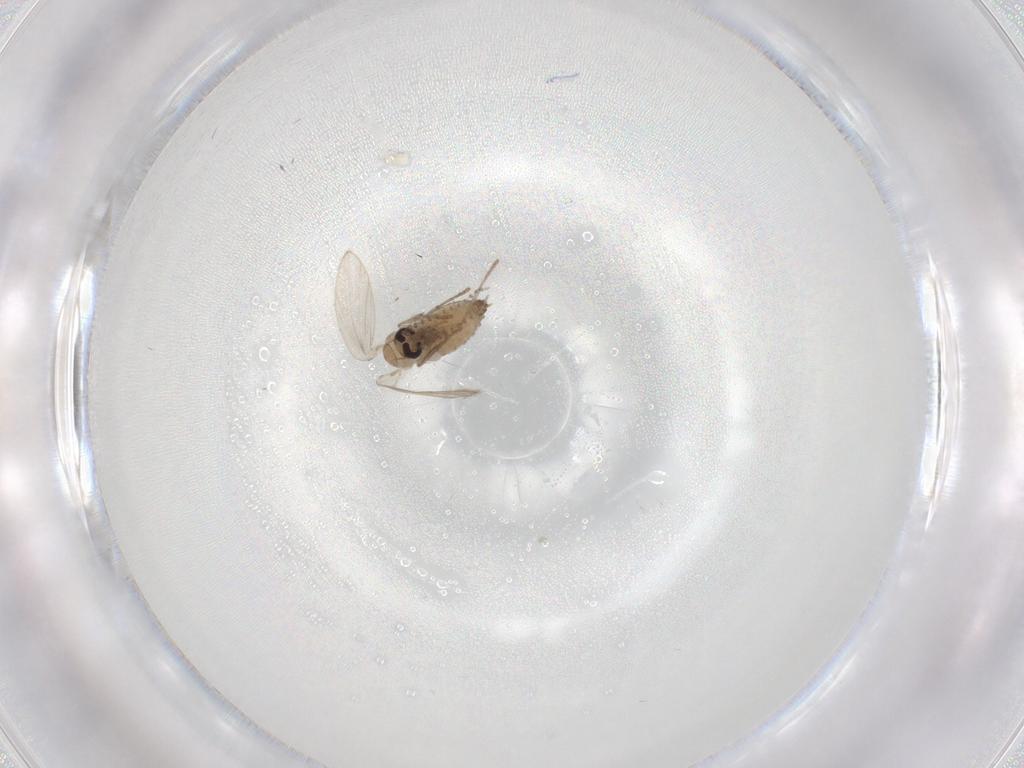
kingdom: Animalia
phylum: Arthropoda
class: Insecta
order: Diptera
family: Psychodidae
